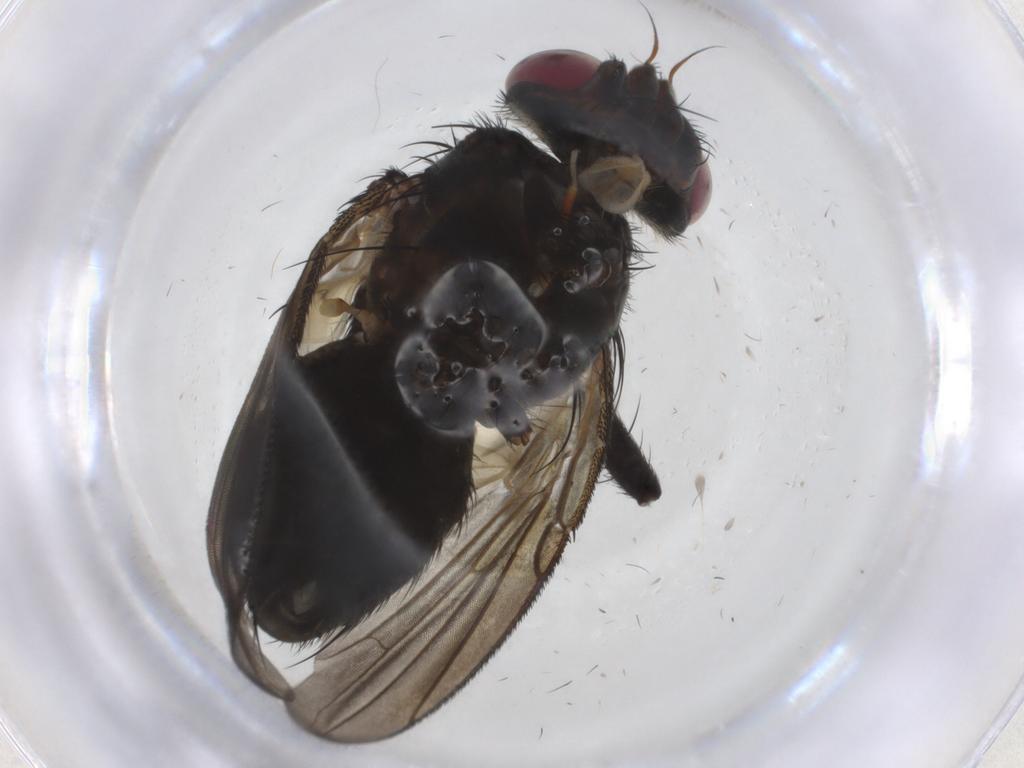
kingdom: Animalia
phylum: Arthropoda
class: Insecta
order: Diptera
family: Tachinidae
